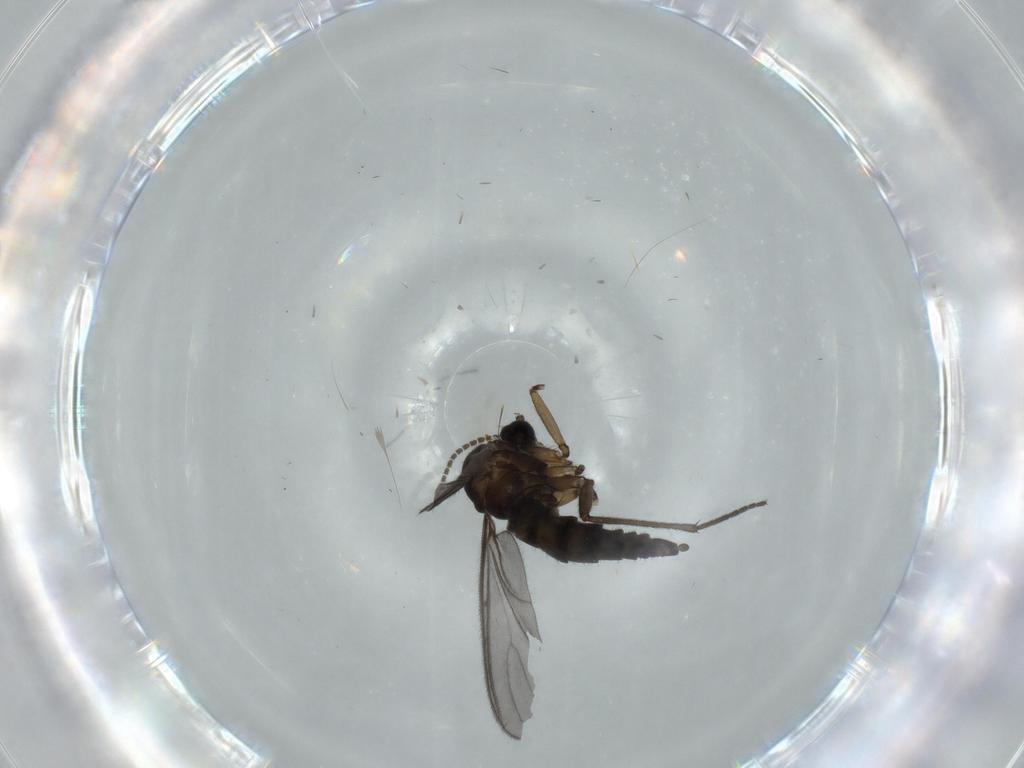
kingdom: Animalia
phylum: Arthropoda
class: Insecta
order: Diptera
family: Sciaridae
